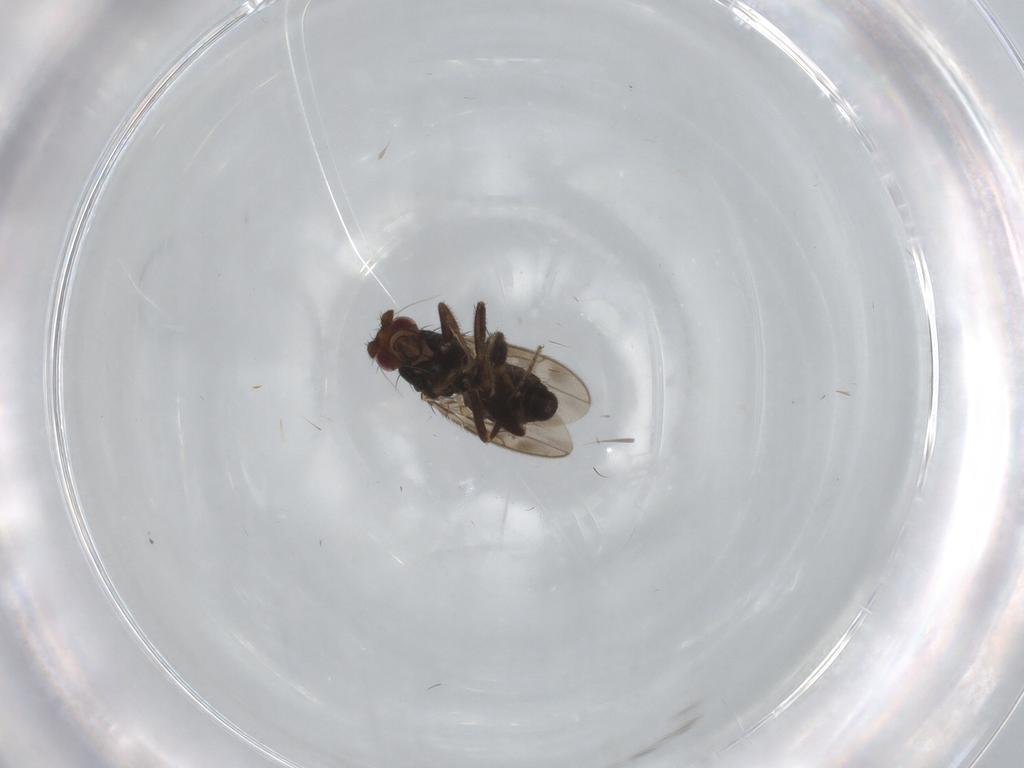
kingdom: Animalia
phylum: Arthropoda
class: Insecta
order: Diptera
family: Sphaeroceridae
